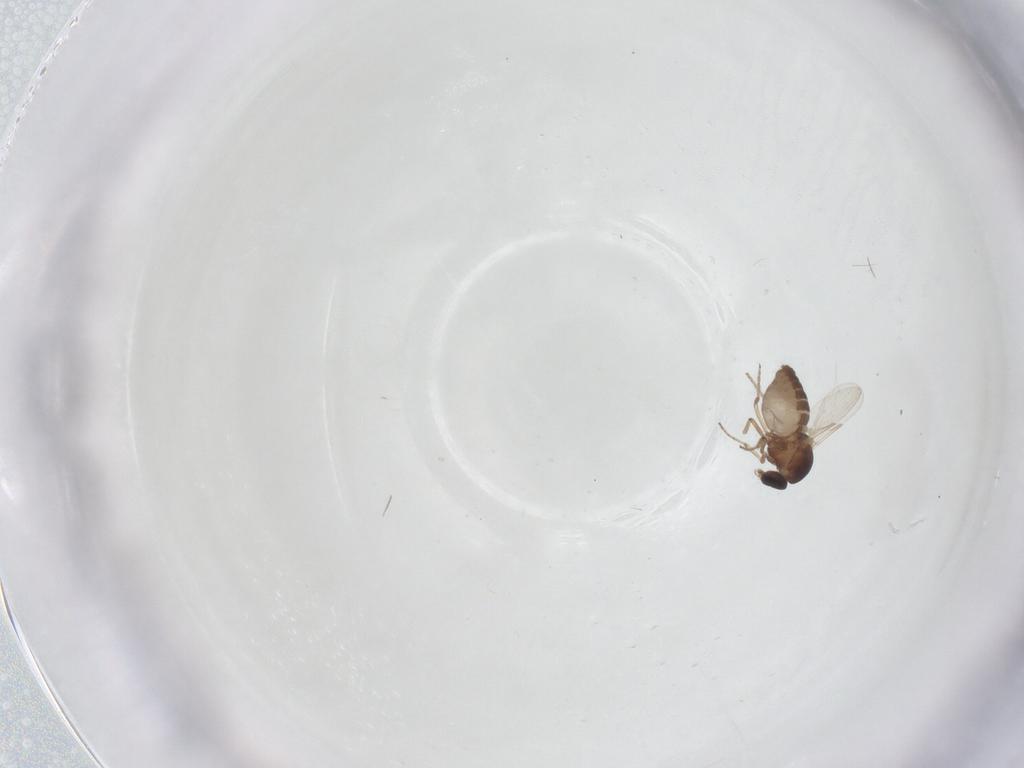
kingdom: Animalia
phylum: Arthropoda
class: Insecta
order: Diptera
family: Ceratopogonidae
